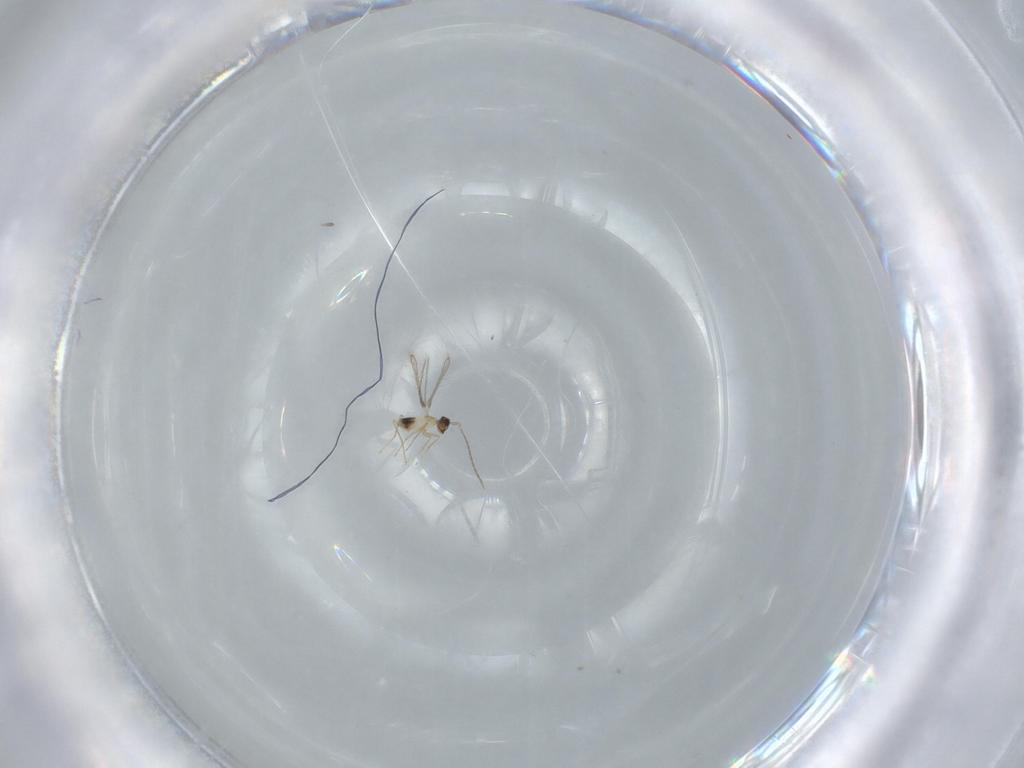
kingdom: Animalia
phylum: Arthropoda
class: Insecta
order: Hymenoptera
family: Mymaridae
